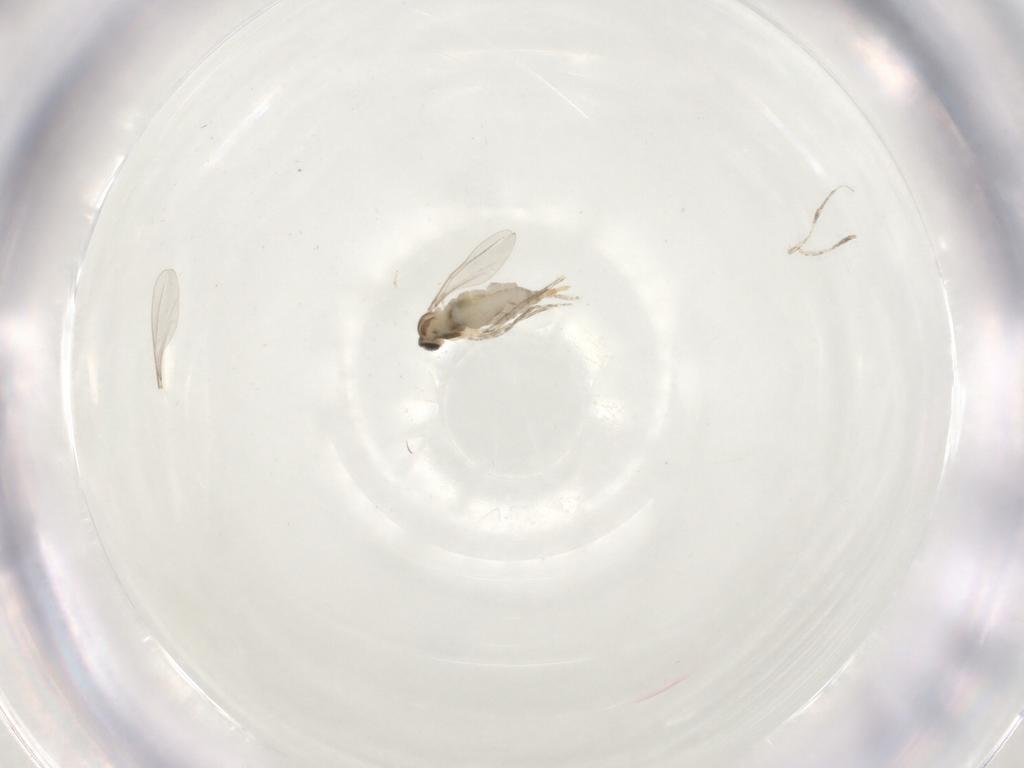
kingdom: Animalia
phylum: Arthropoda
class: Insecta
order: Diptera
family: Cecidomyiidae
